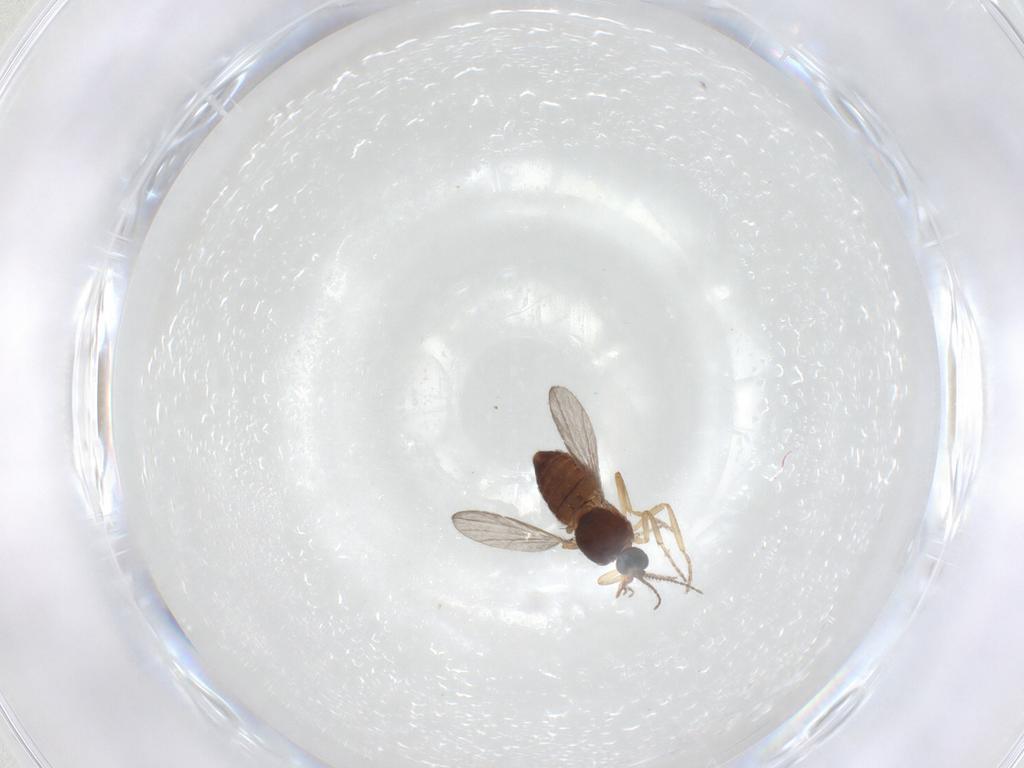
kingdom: Animalia
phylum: Arthropoda
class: Insecta
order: Diptera
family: Ceratopogonidae
